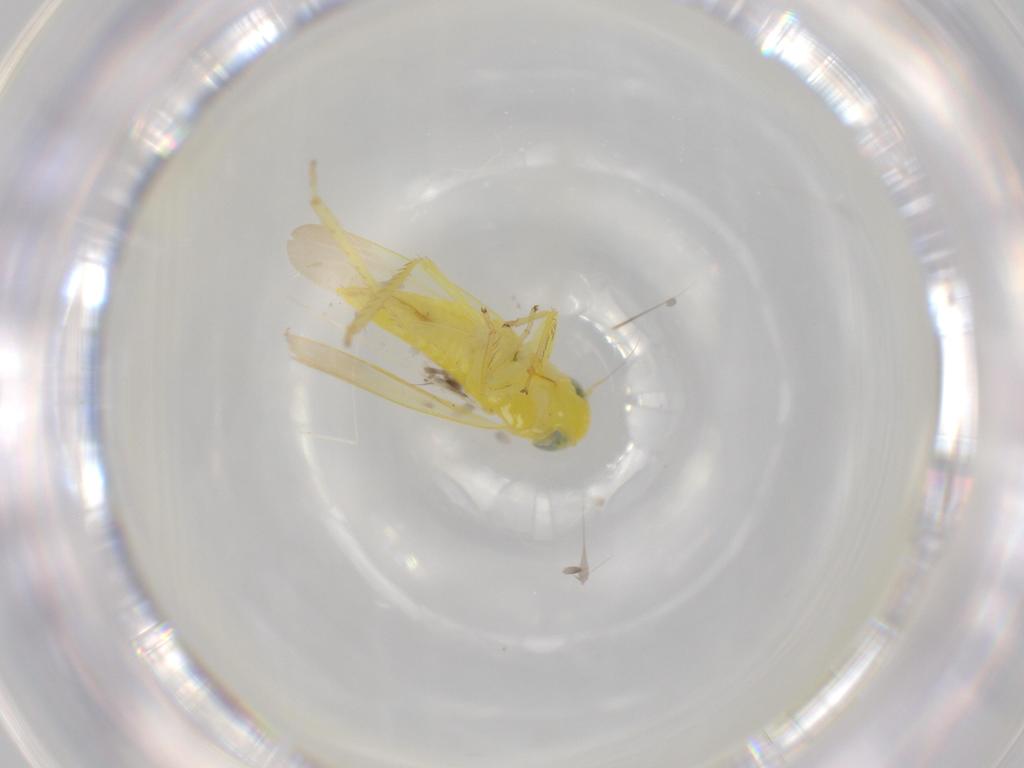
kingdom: Animalia
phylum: Arthropoda
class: Insecta
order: Hemiptera
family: Cicadellidae
